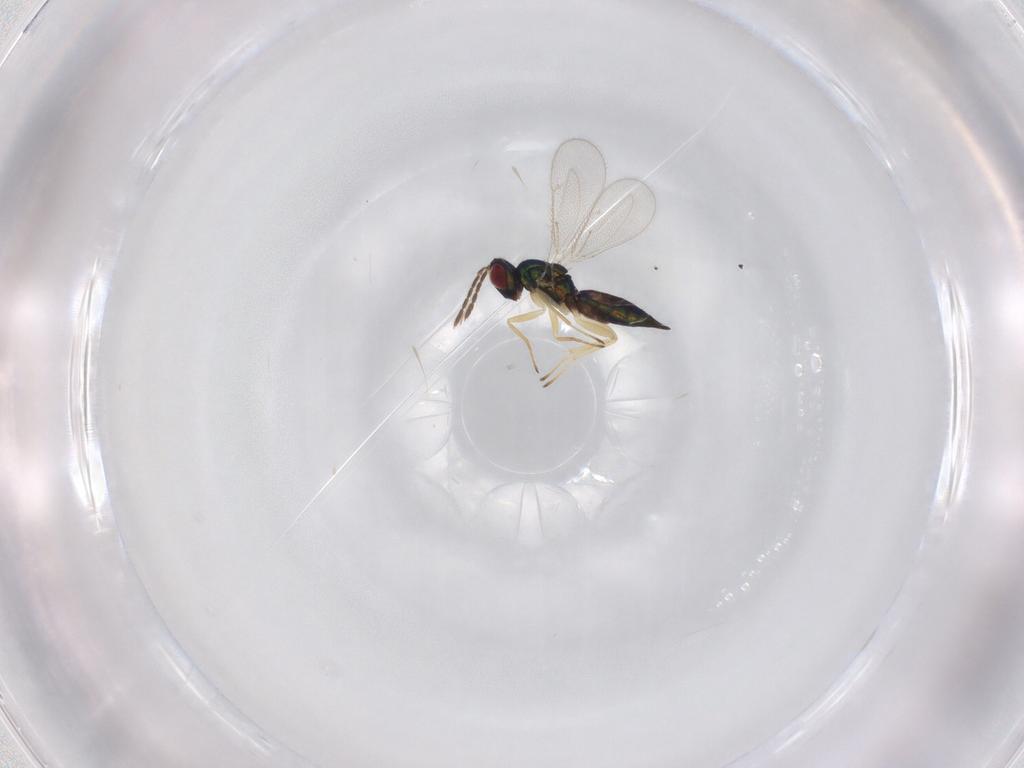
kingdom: Animalia
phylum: Arthropoda
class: Insecta
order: Hymenoptera
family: Eulophidae
